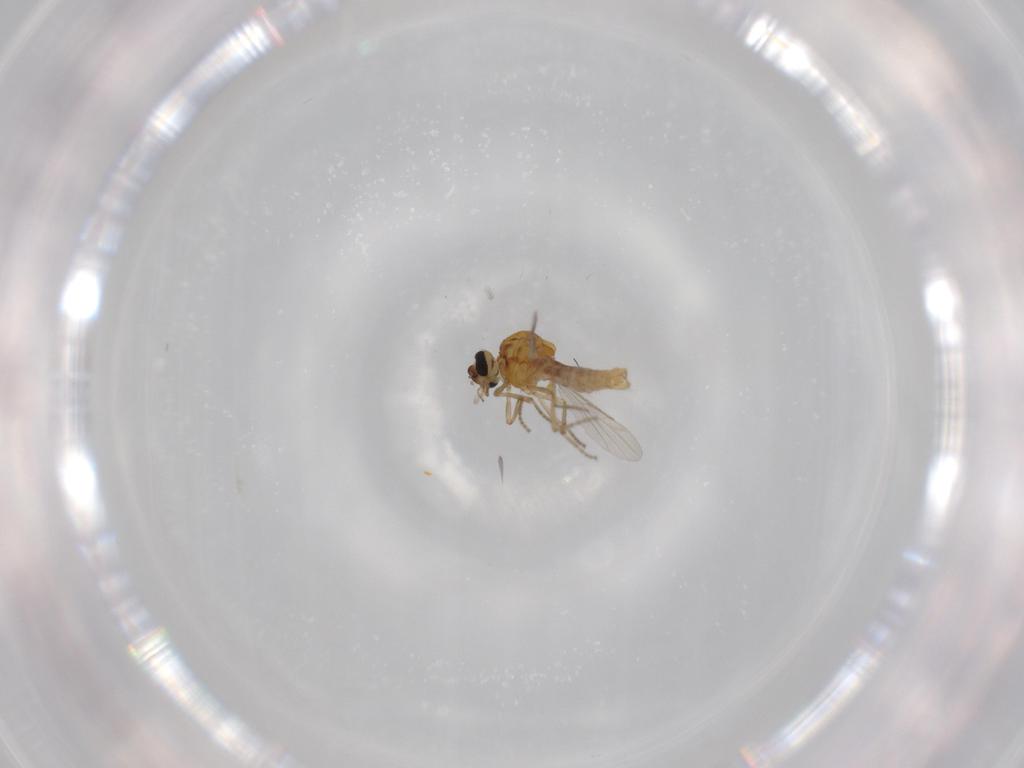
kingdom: Animalia
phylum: Arthropoda
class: Insecta
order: Diptera
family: Ceratopogonidae
